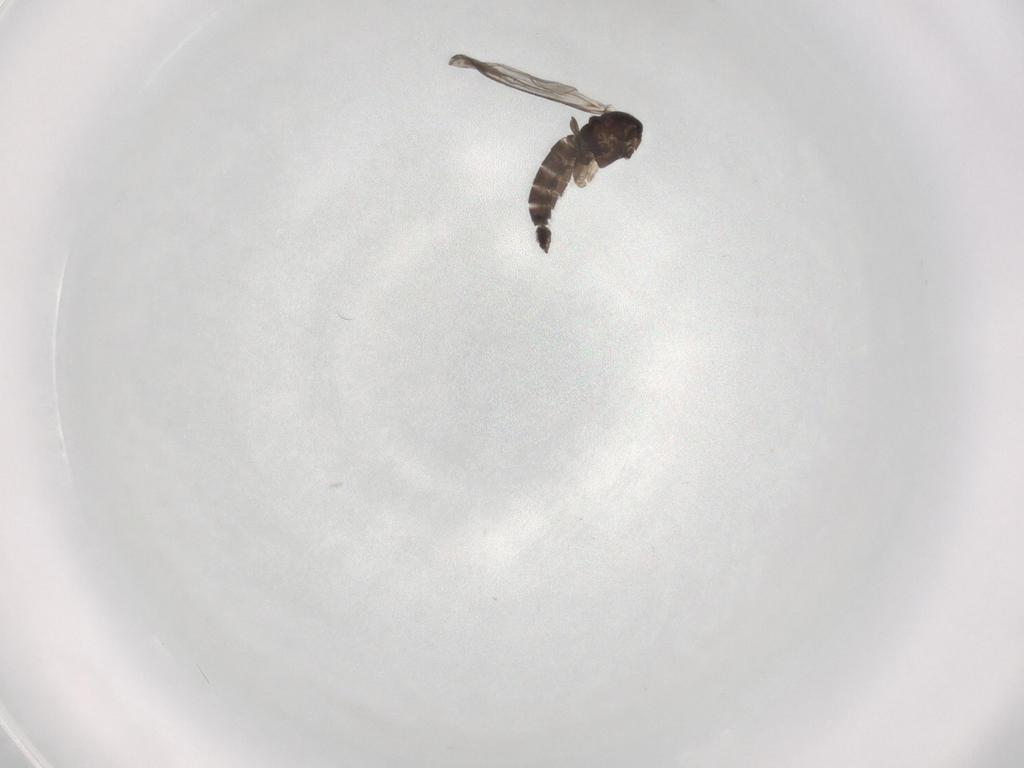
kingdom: Animalia
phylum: Arthropoda
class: Insecta
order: Diptera
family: Sciaridae
